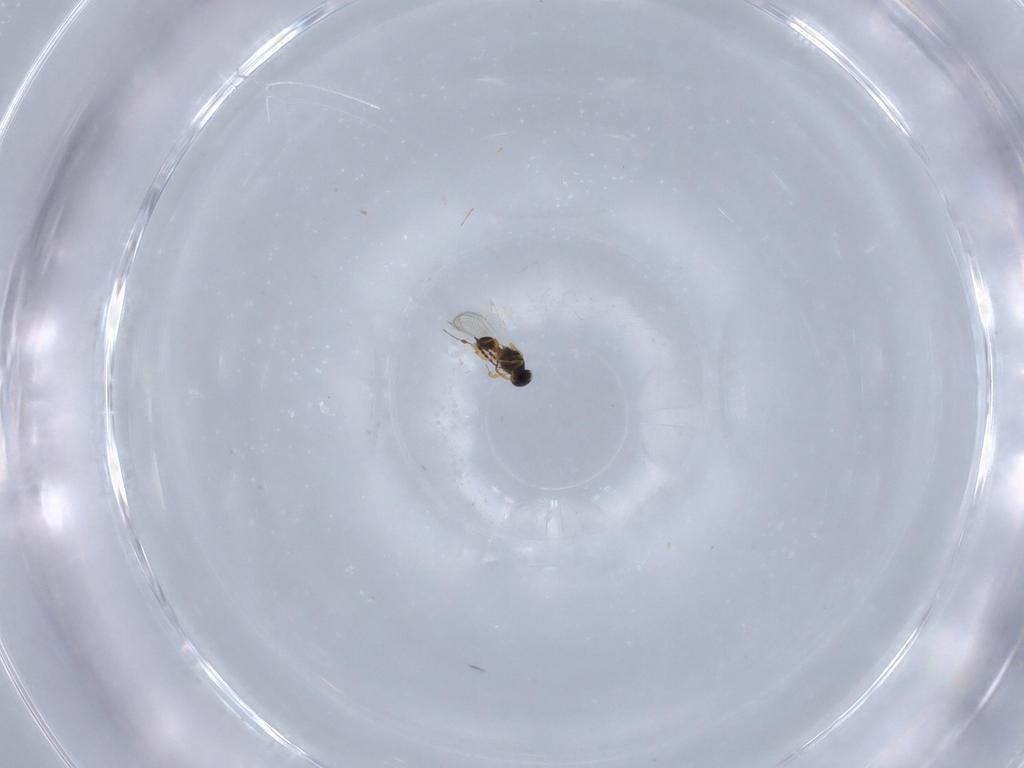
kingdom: Animalia
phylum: Arthropoda
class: Insecta
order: Hymenoptera
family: Platygastridae
